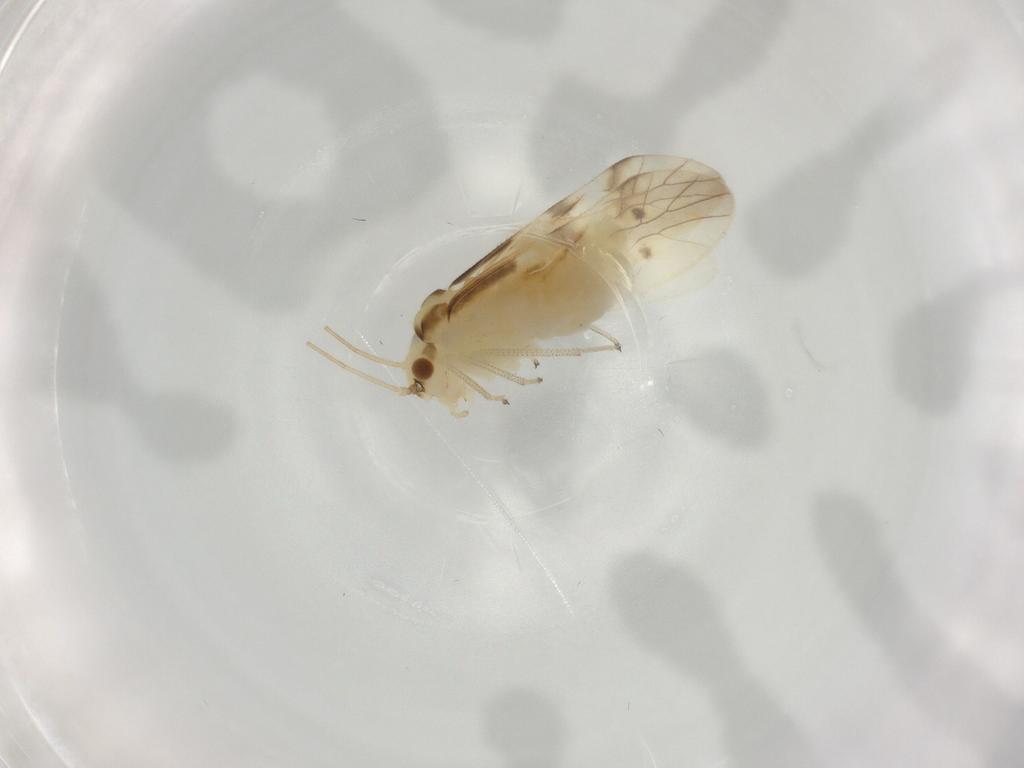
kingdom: Animalia
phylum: Arthropoda
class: Insecta
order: Psocodea
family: Caeciliusidae
